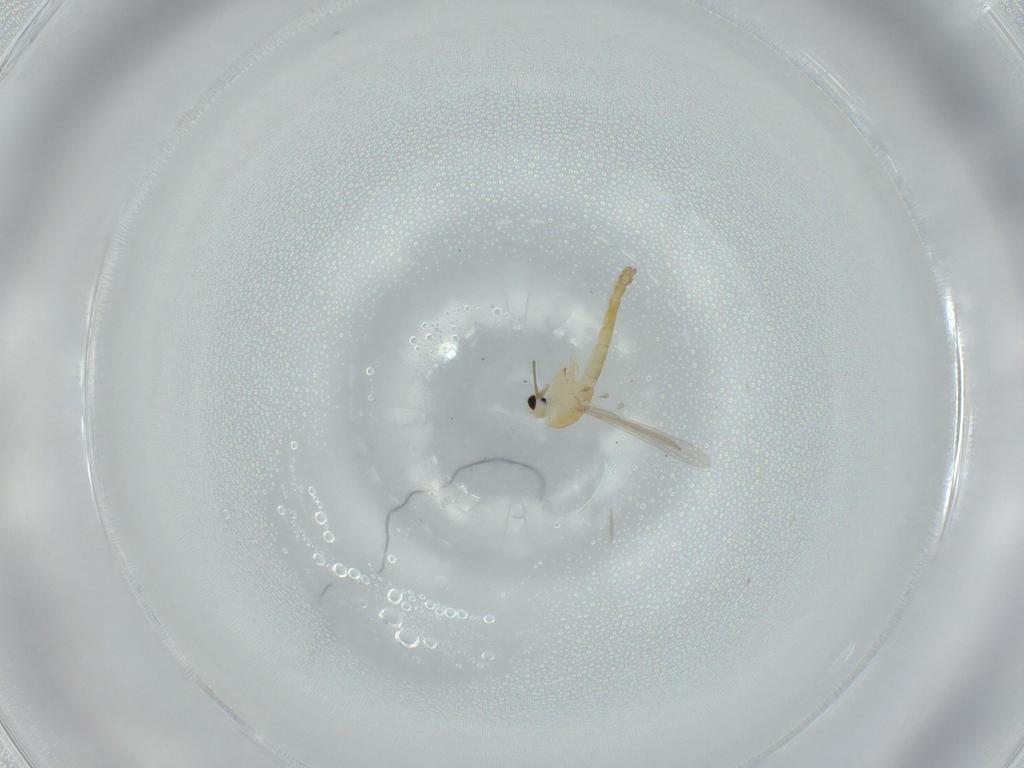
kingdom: Animalia
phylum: Arthropoda
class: Insecta
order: Diptera
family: Chironomidae
